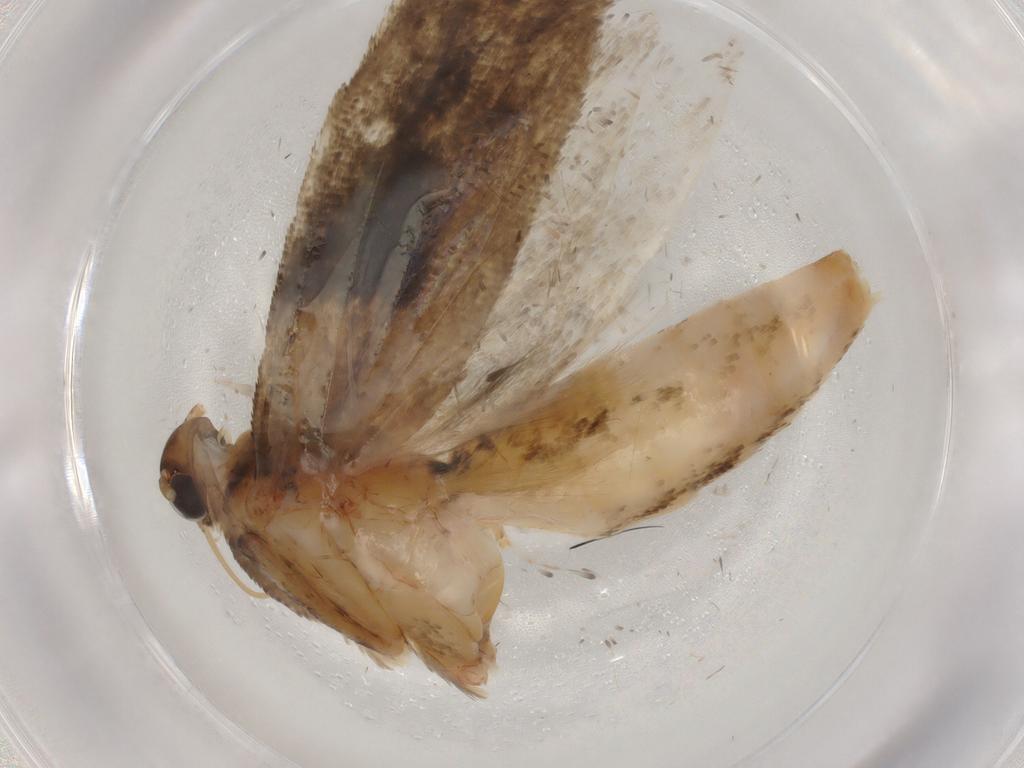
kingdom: Animalia
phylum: Arthropoda
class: Insecta
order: Lepidoptera
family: Gelechiidae
